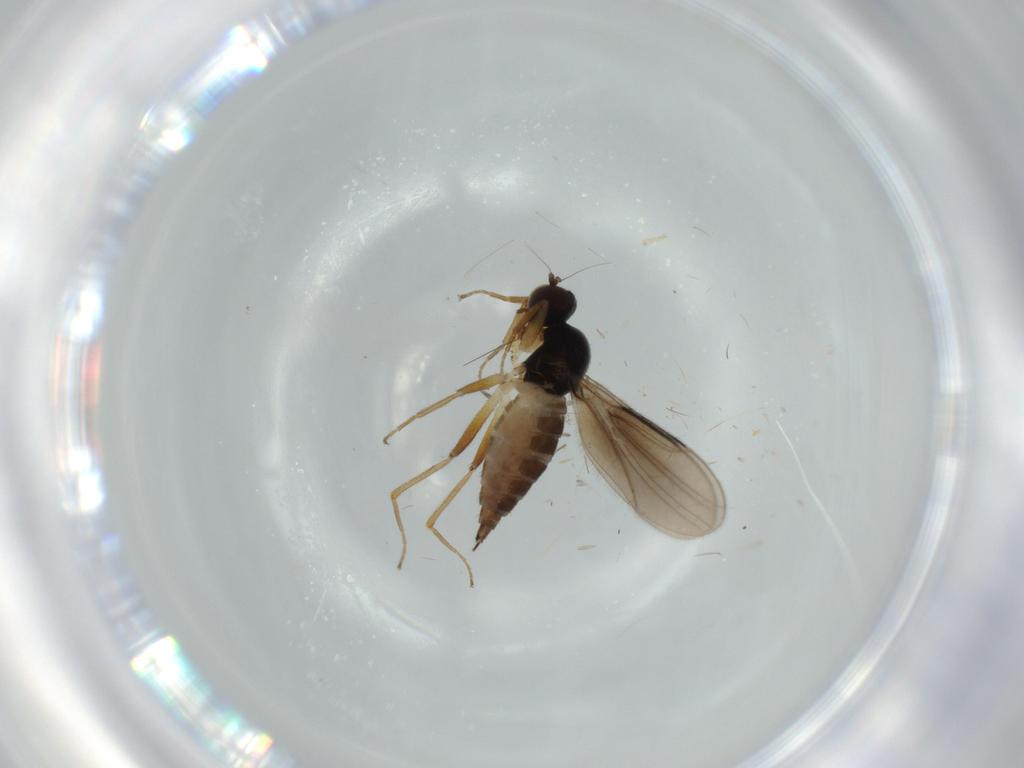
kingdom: Animalia
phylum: Arthropoda
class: Insecta
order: Diptera
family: Hybotidae
